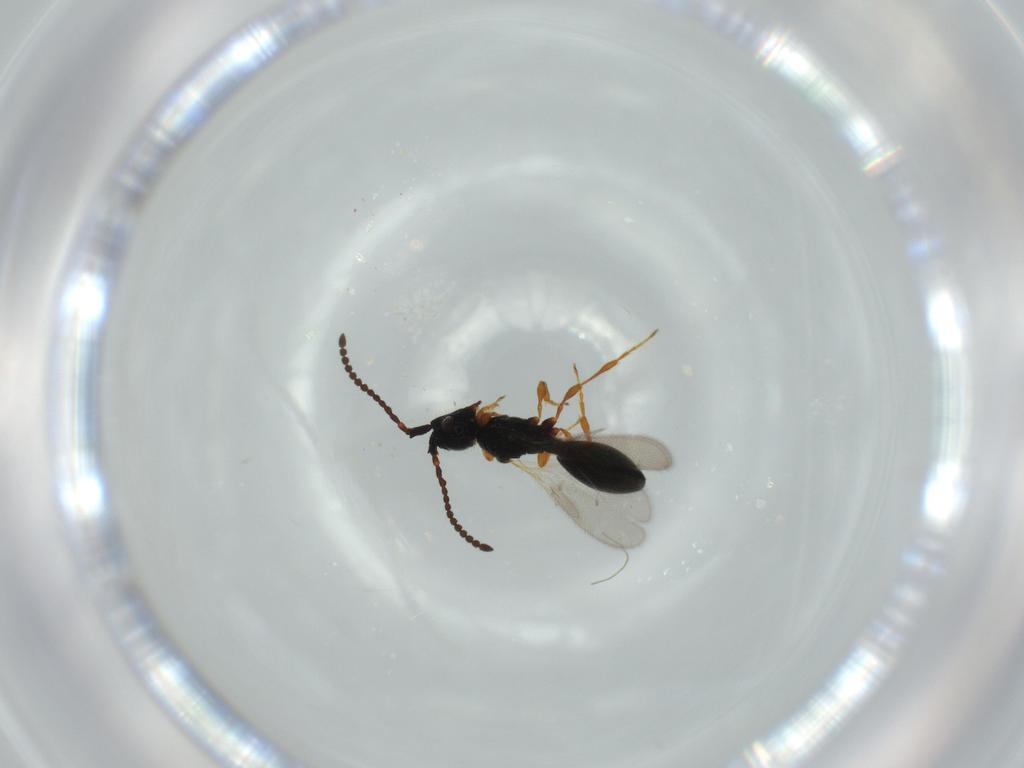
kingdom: Animalia
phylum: Arthropoda
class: Insecta
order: Hymenoptera
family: Diapriidae
